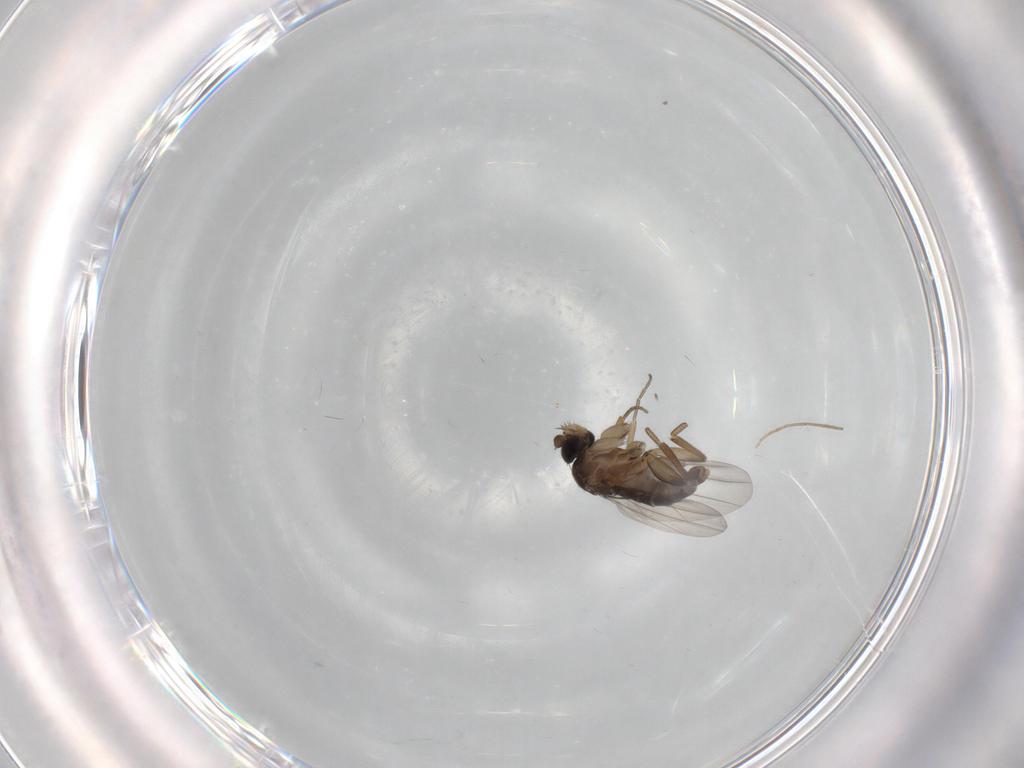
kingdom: Animalia
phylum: Arthropoda
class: Insecta
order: Diptera
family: Phoridae
